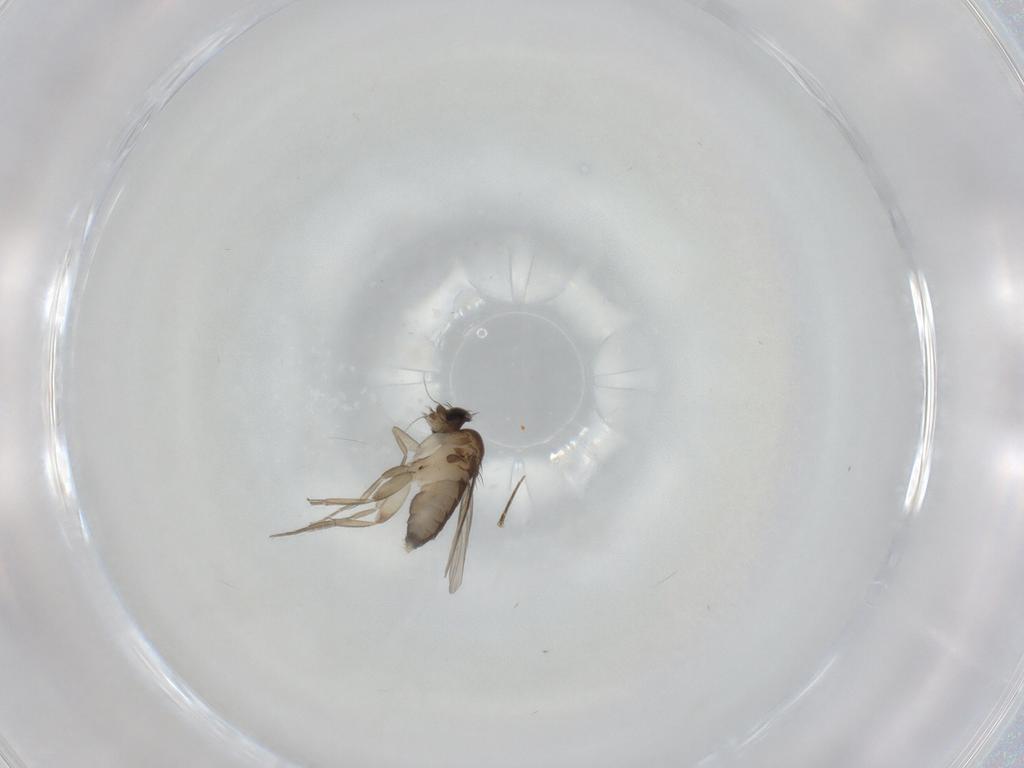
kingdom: Animalia
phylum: Arthropoda
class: Insecta
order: Diptera
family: Phoridae
